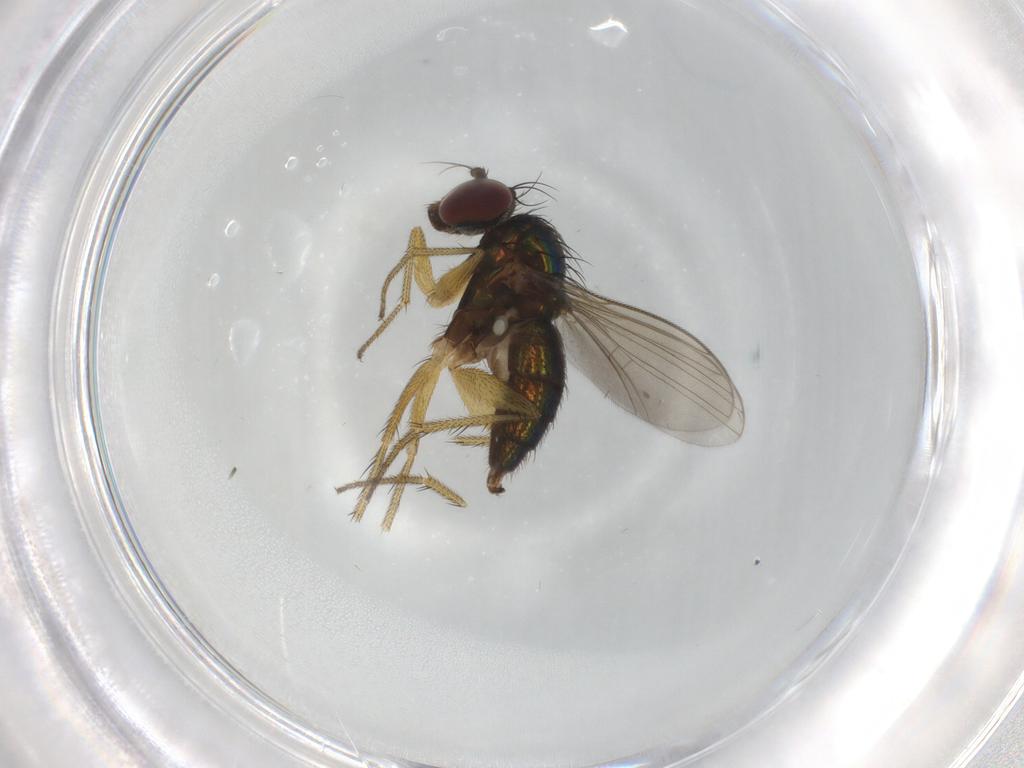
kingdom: Animalia
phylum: Arthropoda
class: Insecta
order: Diptera
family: Dolichopodidae
